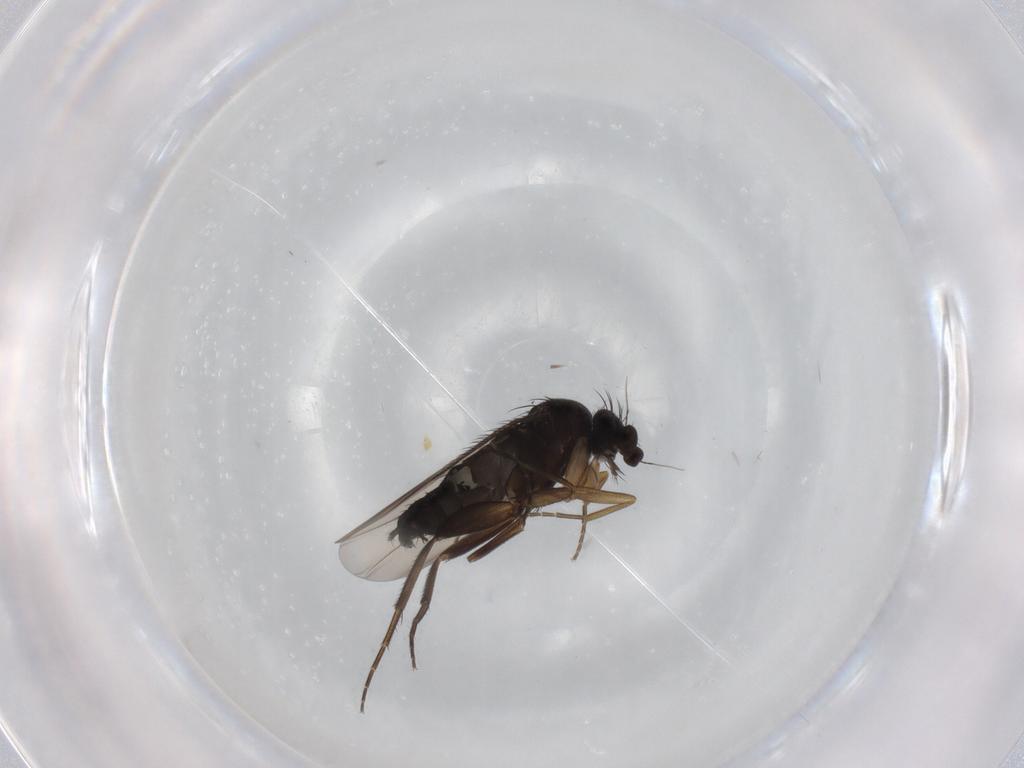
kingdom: Animalia
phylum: Arthropoda
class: Insecta
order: Diptera
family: Phoridae
